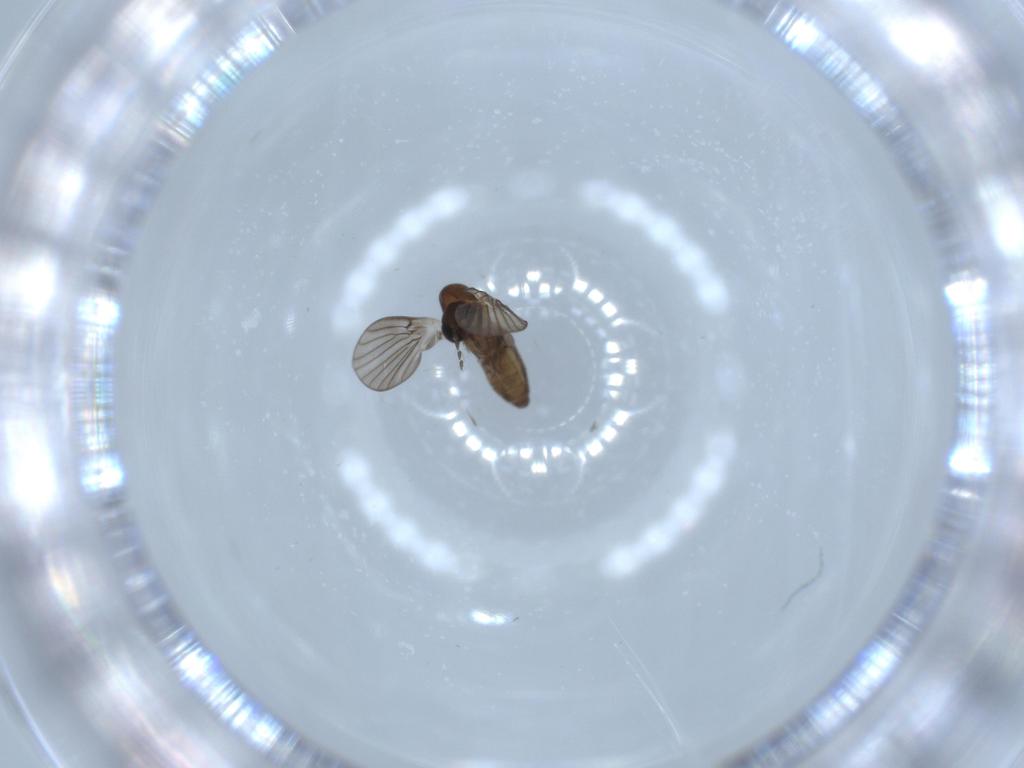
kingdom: Animalia
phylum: Arthropoda
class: Insecta
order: Diptera
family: Psychodidae
